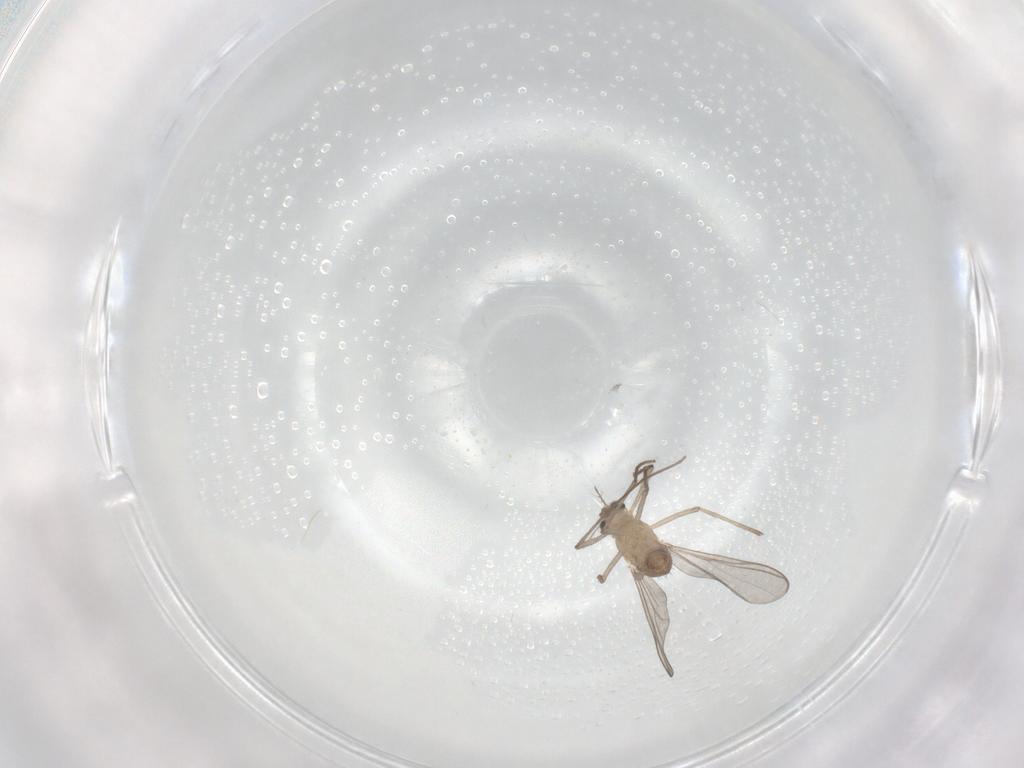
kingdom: Animalia
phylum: Arthropoda
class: Insecta
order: Diptera
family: Chironomidae
